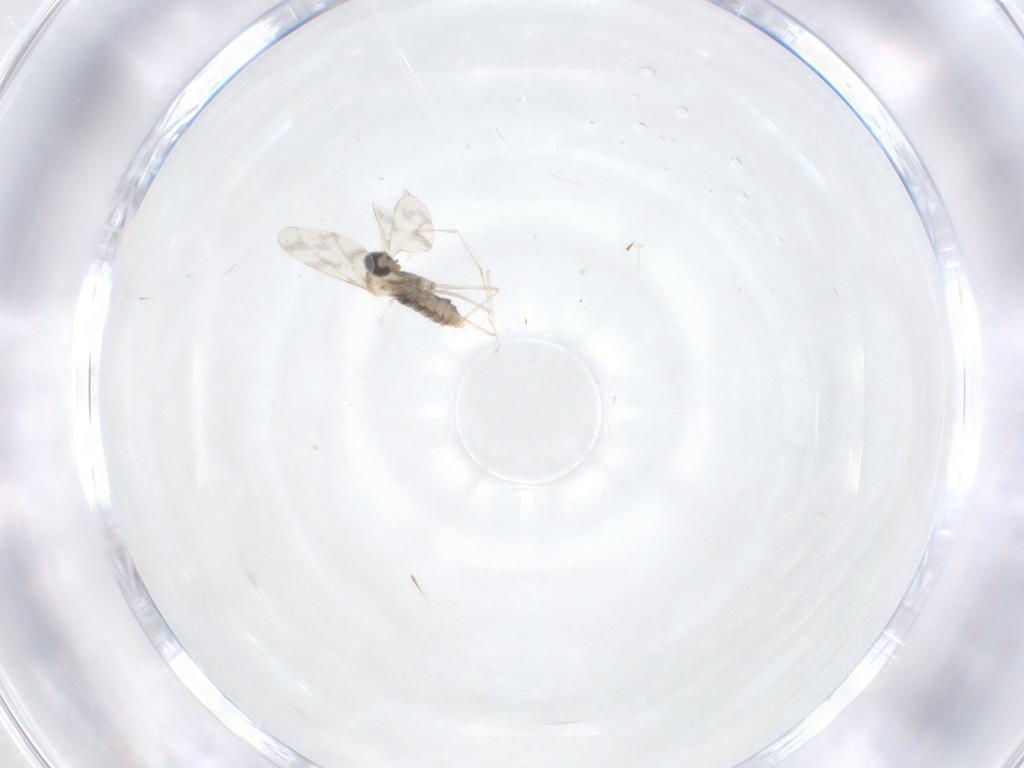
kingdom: Animalia
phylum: Arthropoda
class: Insecta
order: Diptera
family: Cecidomyiidae
